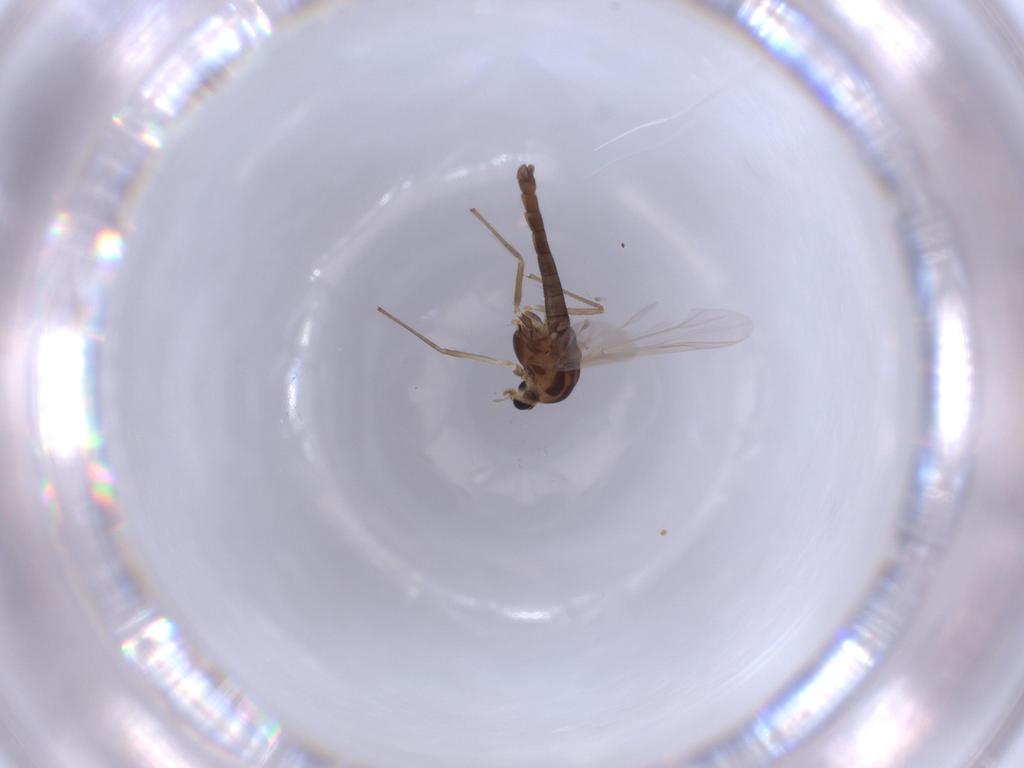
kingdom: Animalia
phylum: Arthropoda
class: Insecta
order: Diptera
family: Chironomidae
